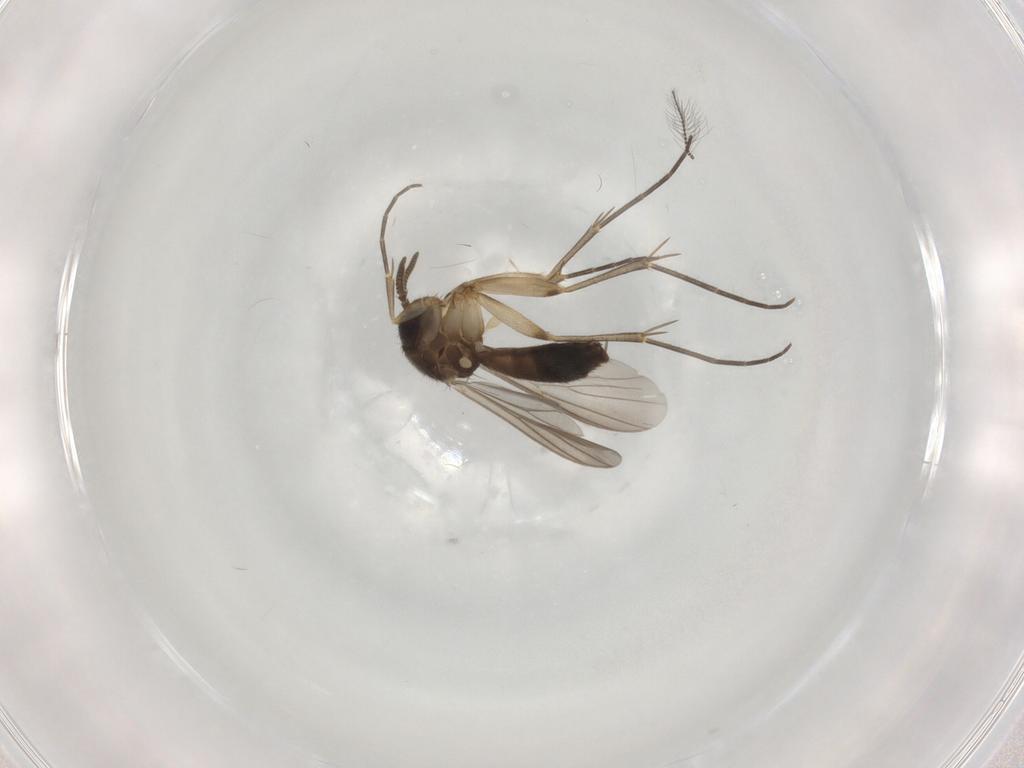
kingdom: Animalia
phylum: Arthropoda
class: Insecta
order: Diptera
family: Mycetophilidae
